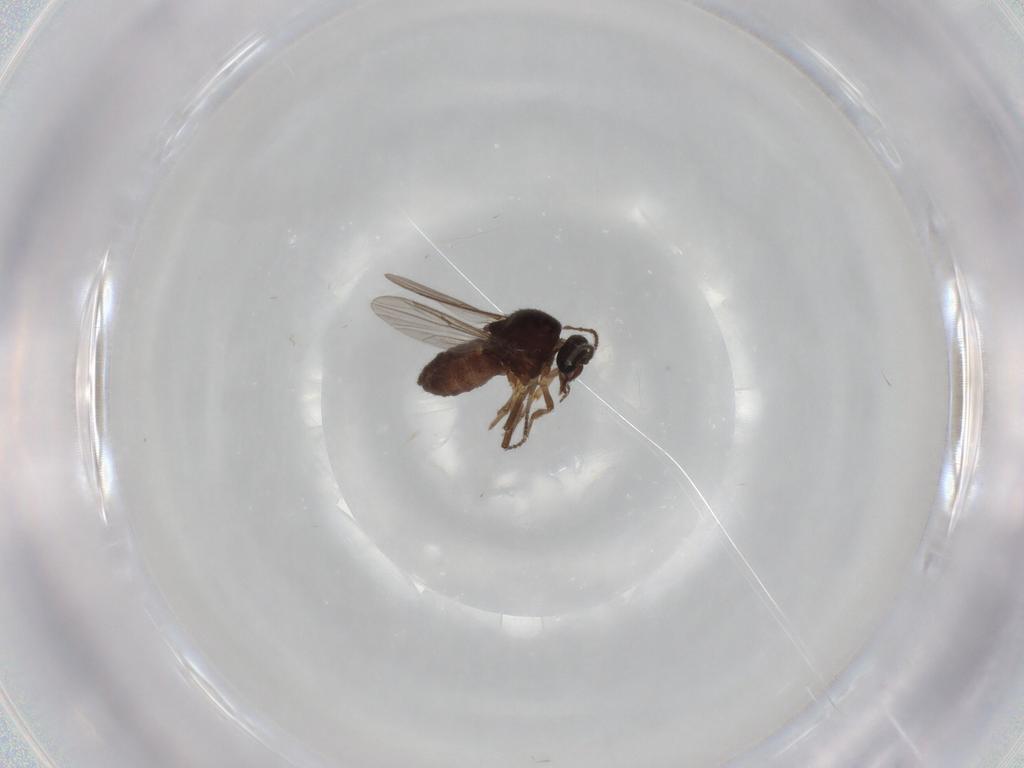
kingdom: Animalia
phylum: Arthropoda
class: Insecta
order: Diptera
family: Ceratopogonidae
